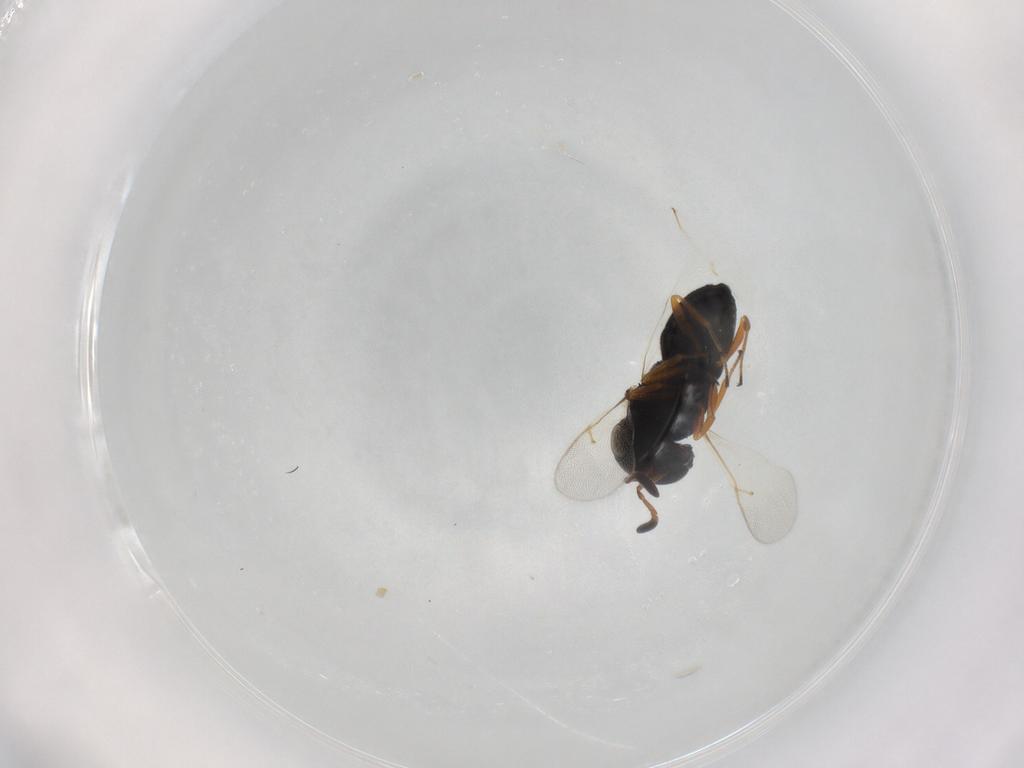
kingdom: Animalia
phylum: Arthropoda
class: Insecta
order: Hymenoptera
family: Scelionidae
